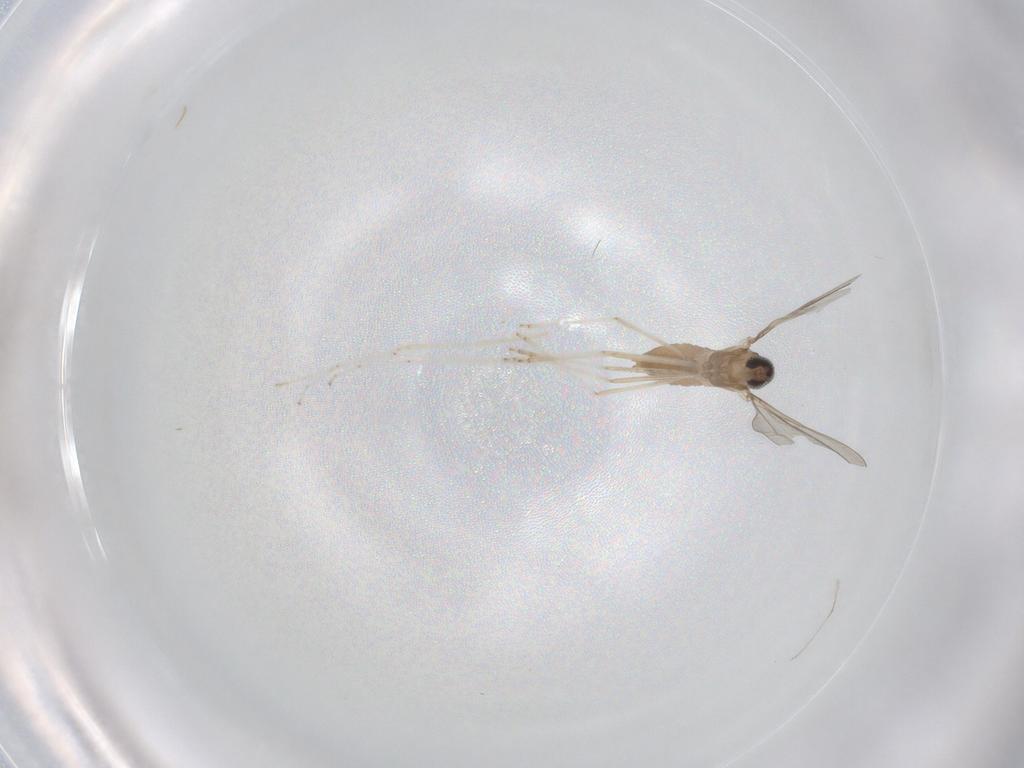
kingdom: Animalia
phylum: Arthropoda
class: Insecta
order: Diptera
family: Cecidomyiidae
